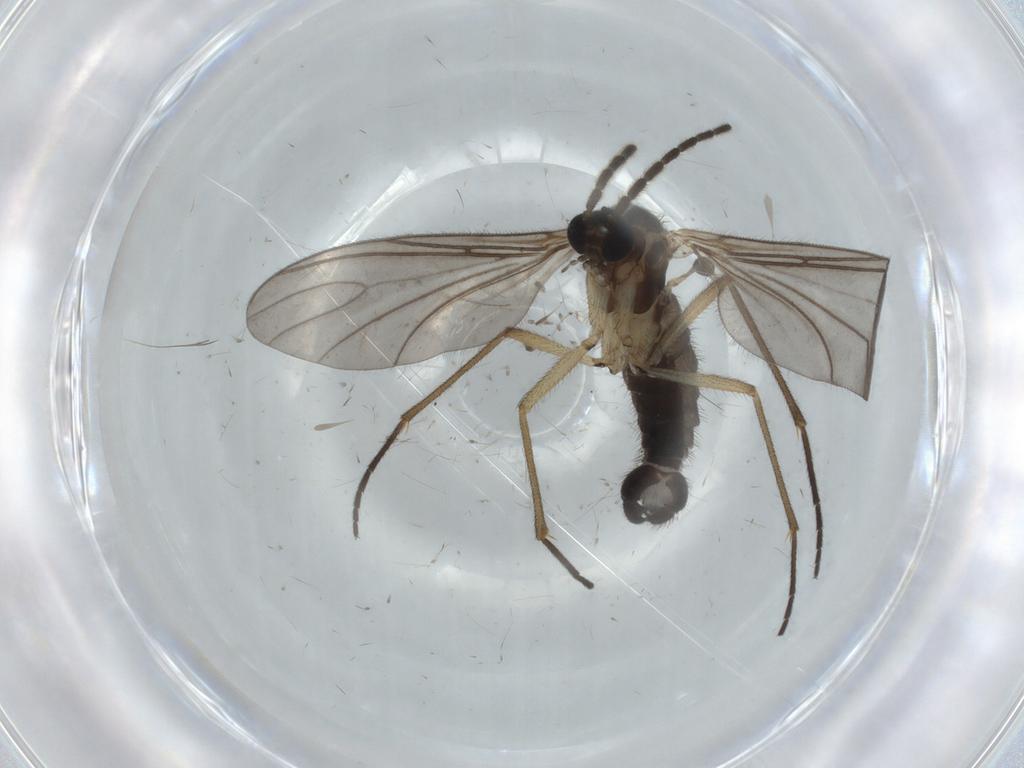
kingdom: Animalia
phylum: Arthropoda
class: Insecta
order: Diptera
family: Sciaridae
